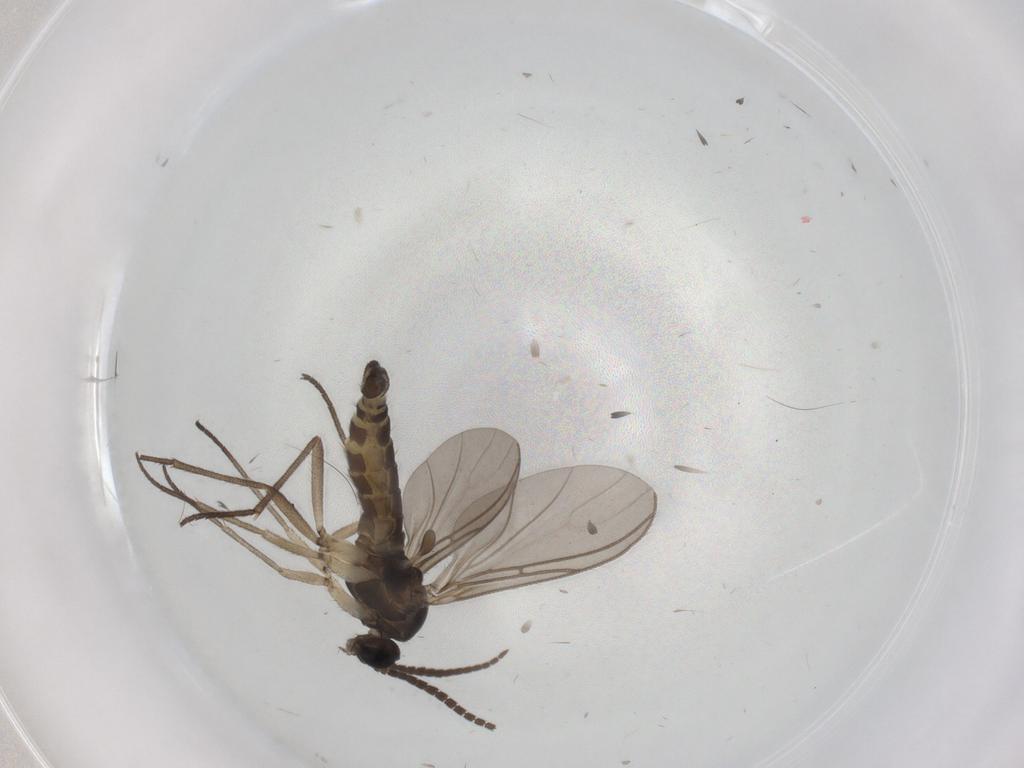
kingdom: Animalia
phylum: Arthropoda
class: Insecta
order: Diptera
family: Sciaridae
